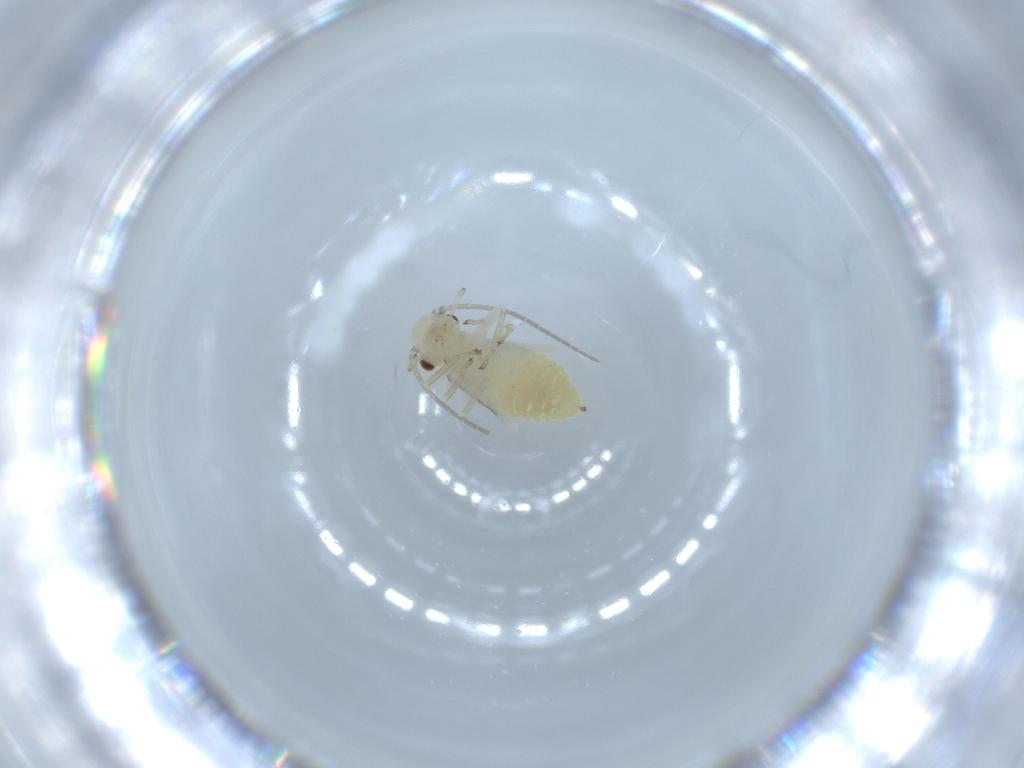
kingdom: Animalia
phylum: Arthropoda
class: Insecta
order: Psocodea
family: Caeciliusidae
